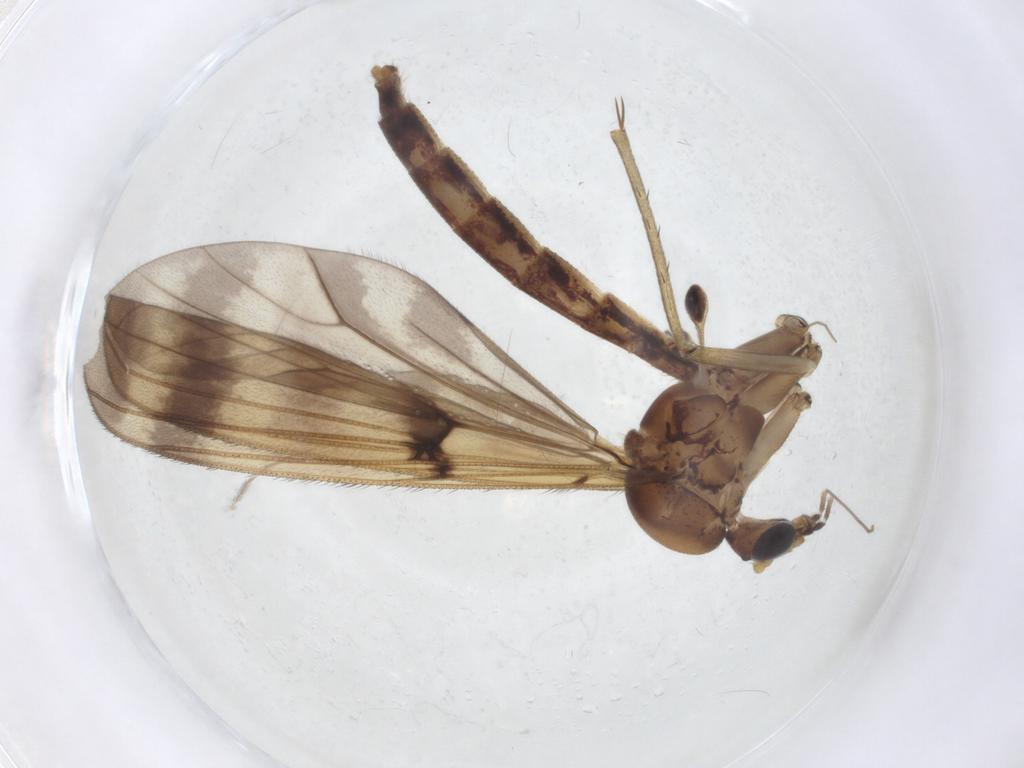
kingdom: Animalia
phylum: Arthropoda
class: Insecta
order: Diptera
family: Mycetophilidae
